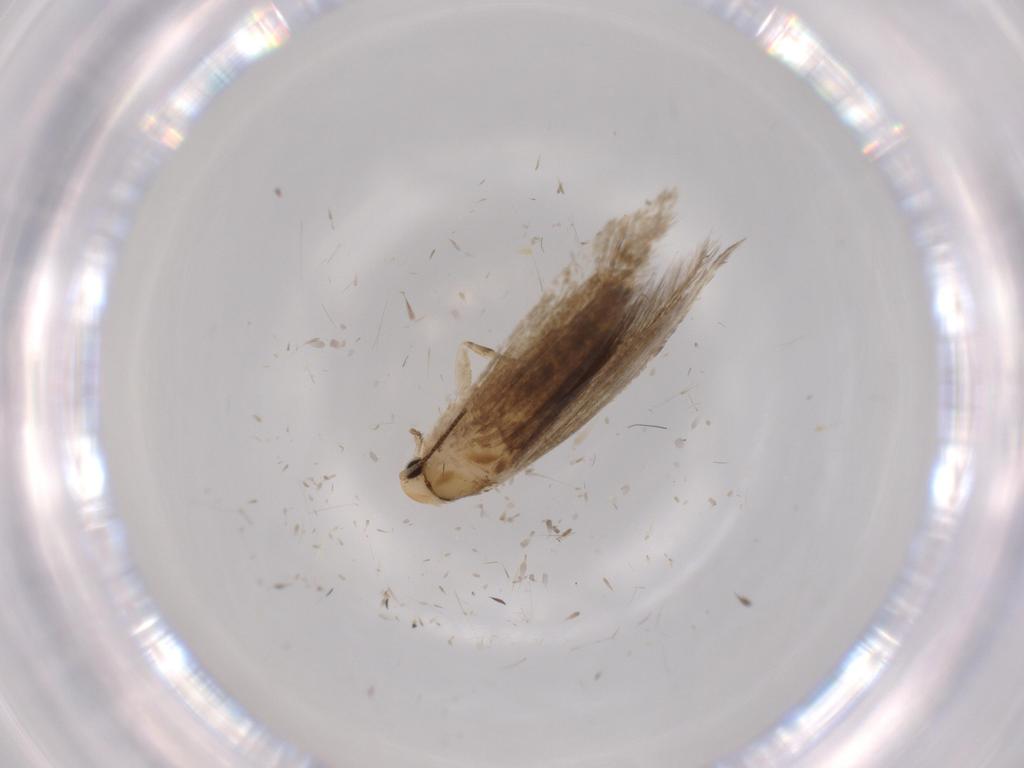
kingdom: Animalia
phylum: Arthropoda
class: Insecta
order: Lepidoptera
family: Tineidae
